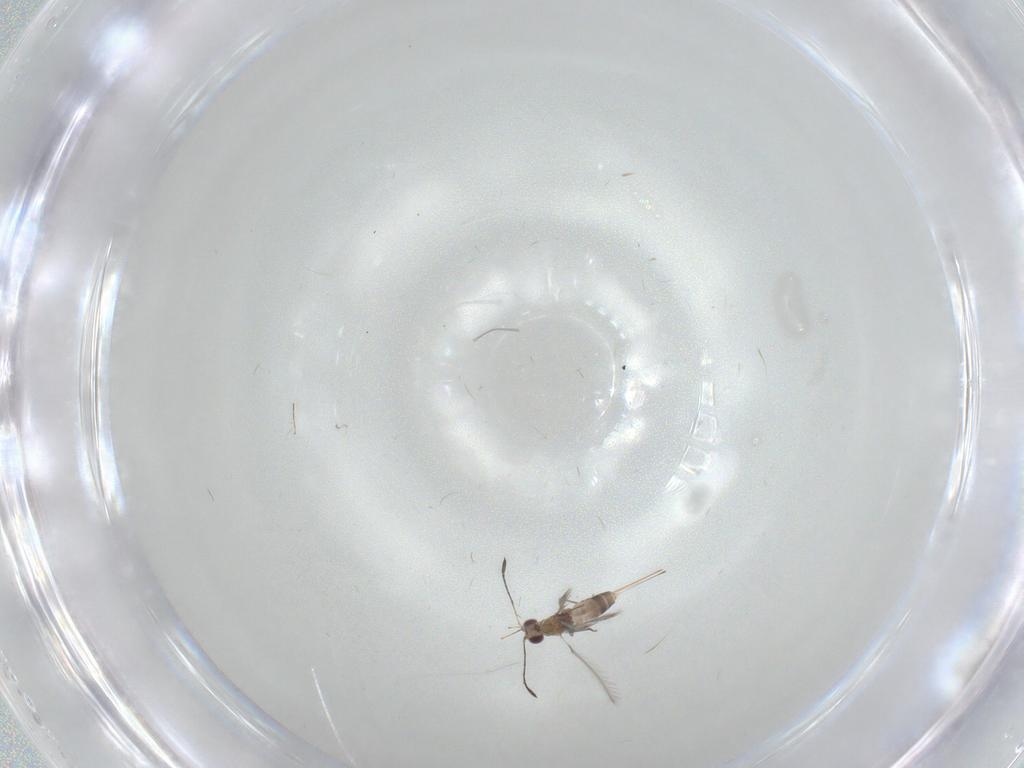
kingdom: Animalia
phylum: Arthropoda
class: Insecta
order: Hymenoptera
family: Mymaridae
